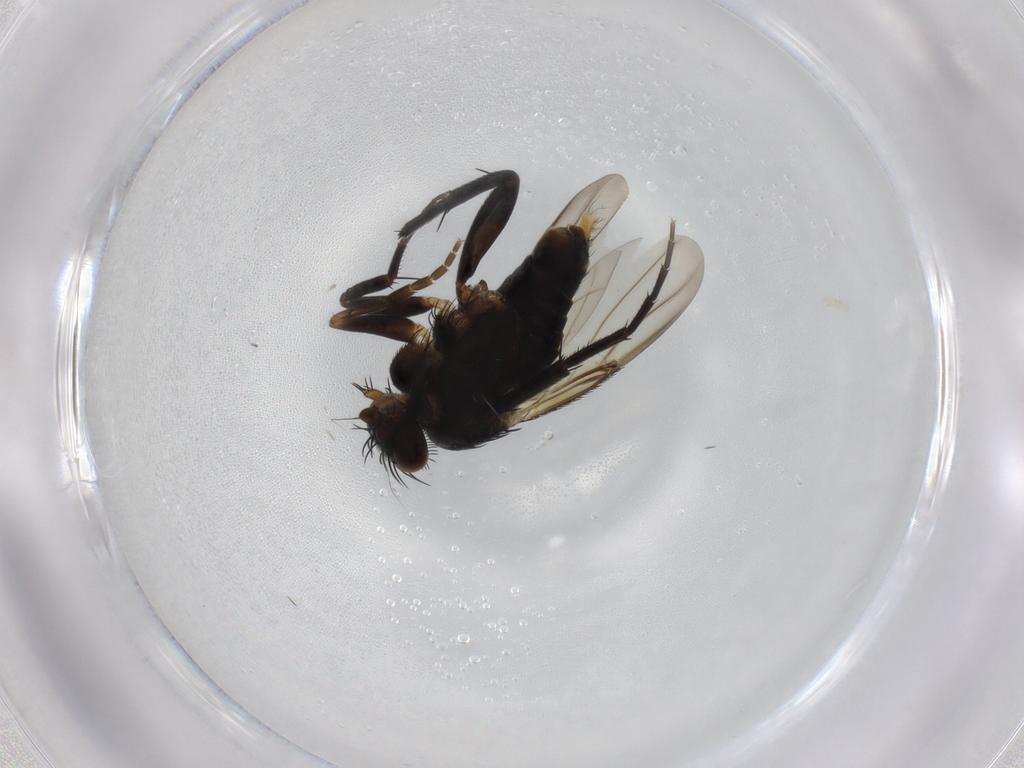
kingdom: Animalia
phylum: Arthropoda
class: Insecta
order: Diptera
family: Phoridae
